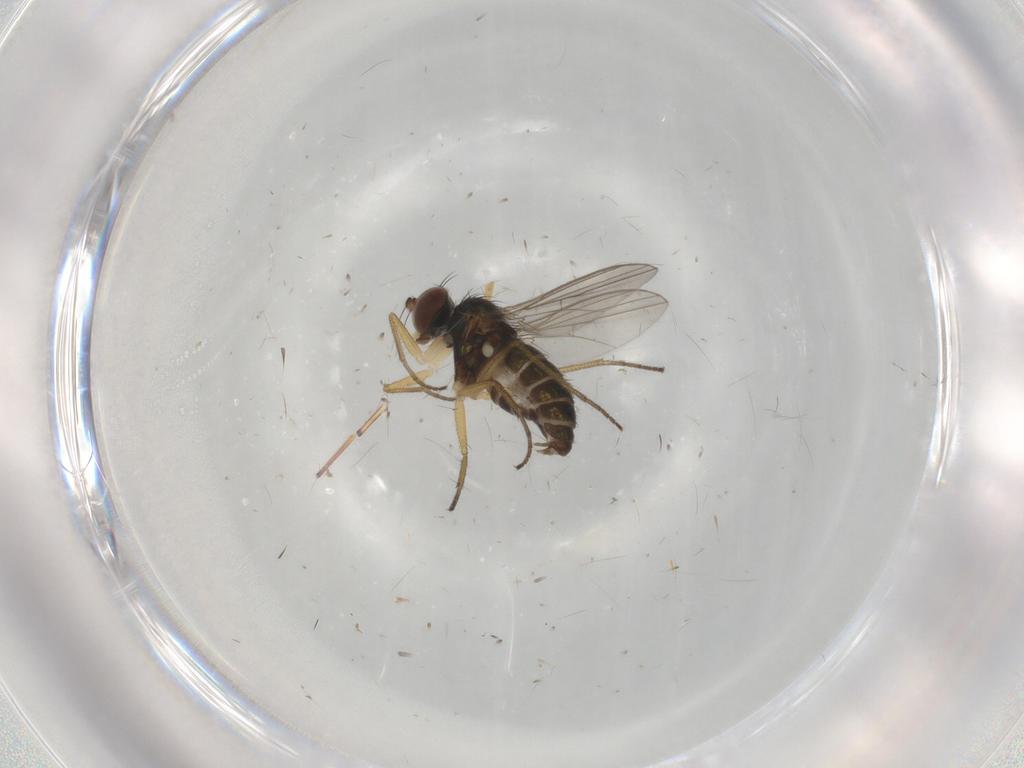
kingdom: Animalia
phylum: Arthropoda
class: Insecta
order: Diptera
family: Dolichopodidae
